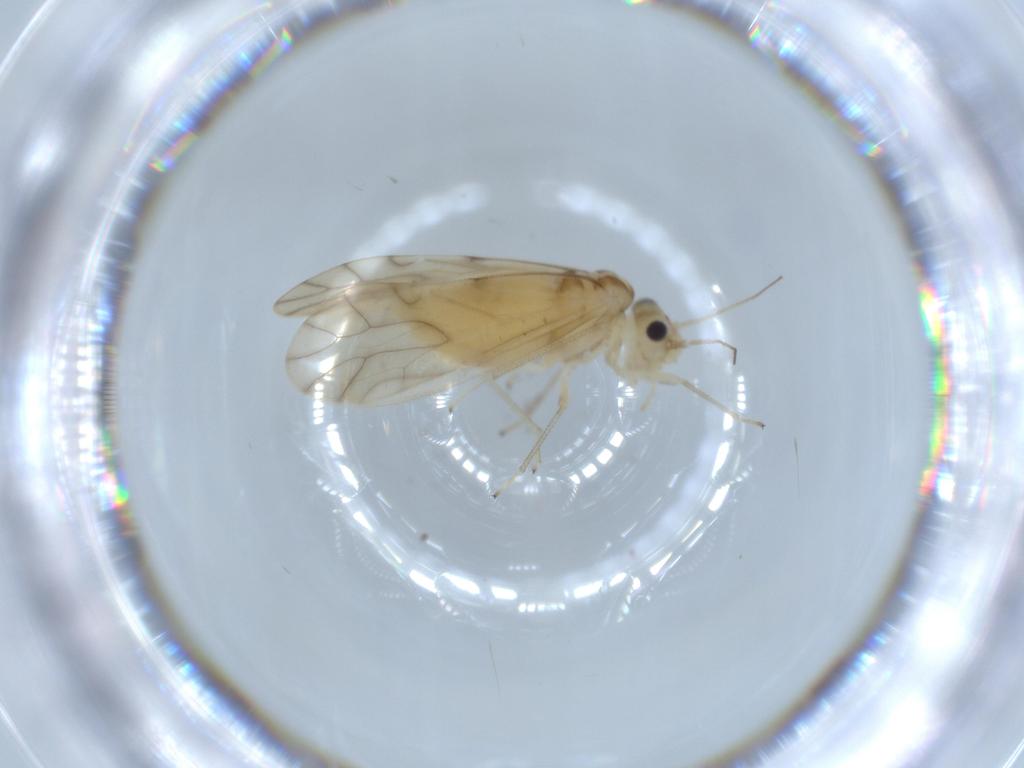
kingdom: Animalia
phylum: Arthropoda
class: Insecta
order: Psocodea
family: Caeciliusidae
